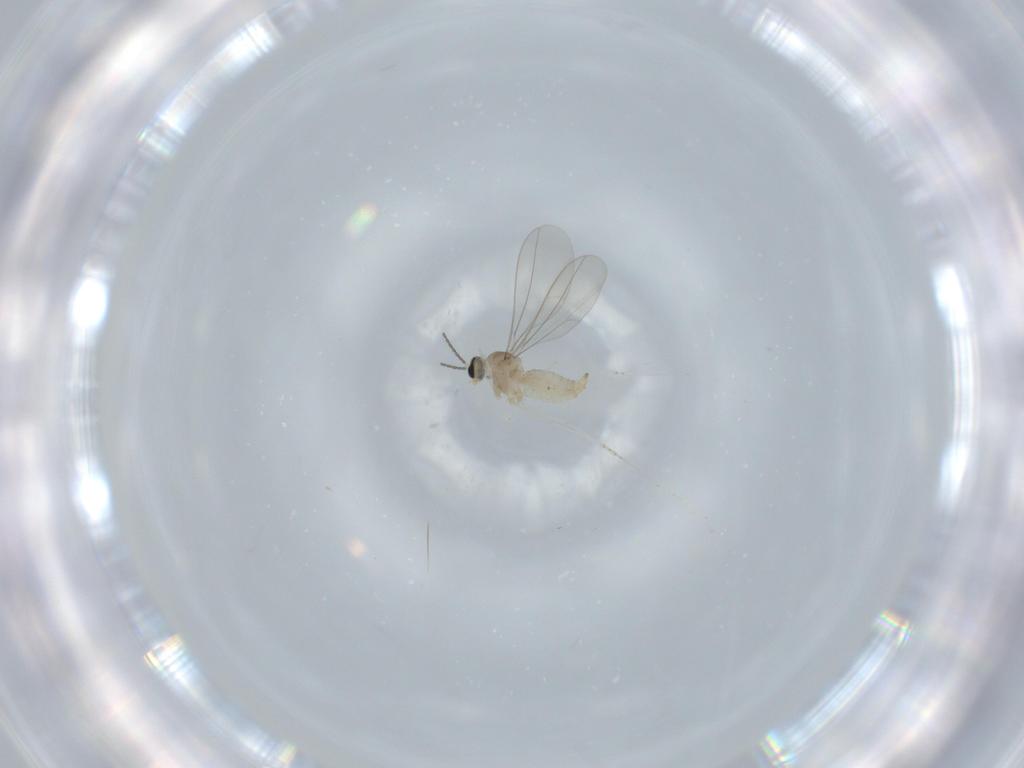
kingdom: Animalia
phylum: Arthropoda
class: Insecta
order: Diptera
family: Cecidomyiidae
